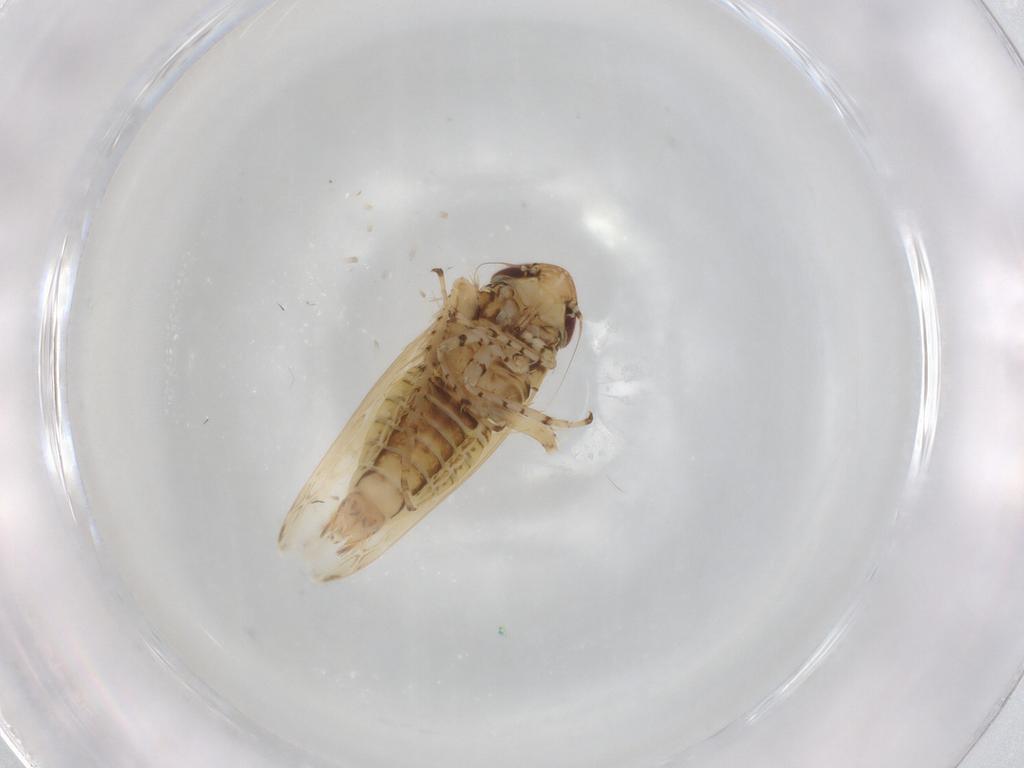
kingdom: Animalia
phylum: Arthropoda
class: Insecta
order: Hemiptera
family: Cicadellidae
